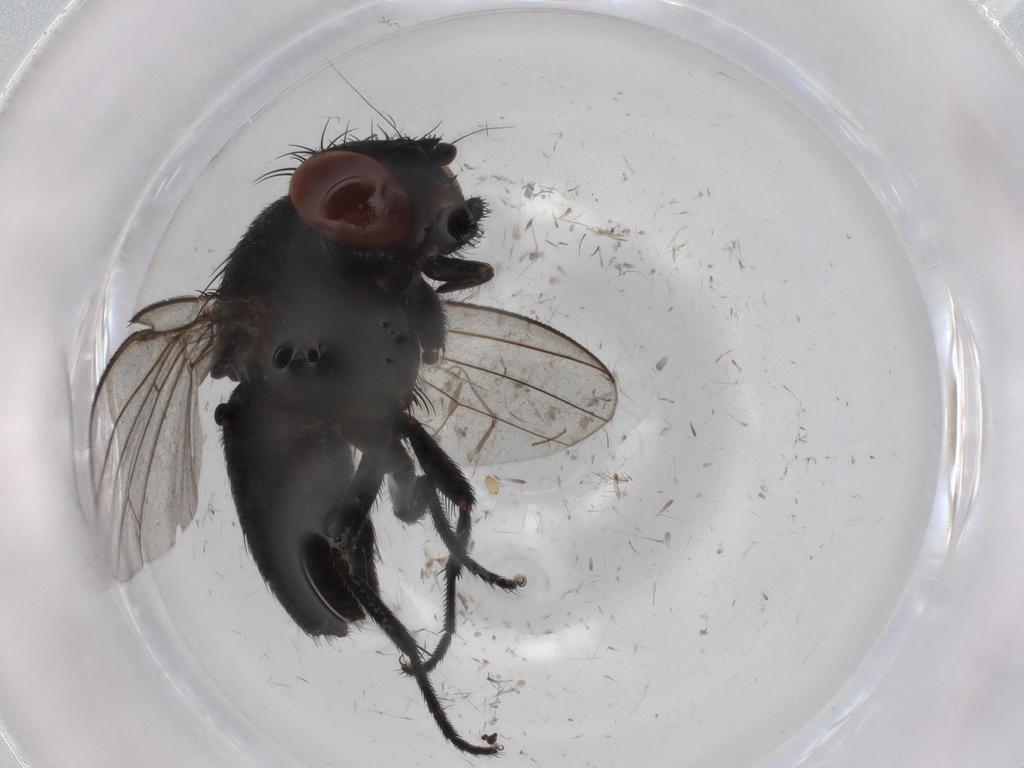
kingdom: Animalia
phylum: Arthropoda
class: Insecta
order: Diptera
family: Milichiidae
